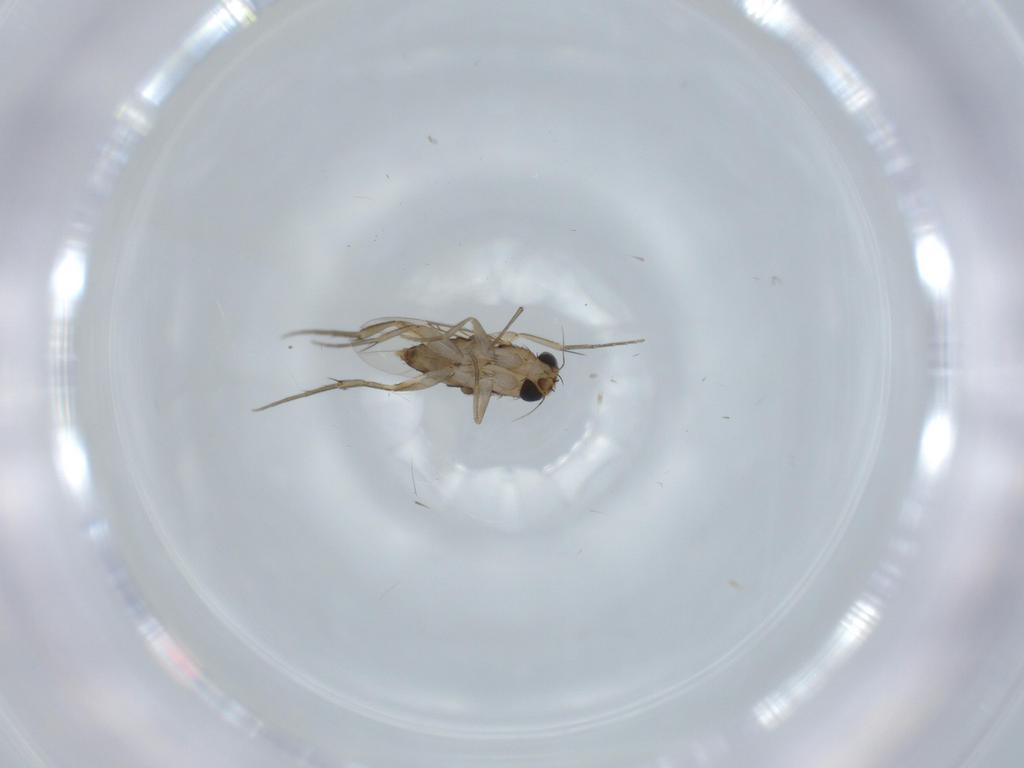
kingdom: Animalia
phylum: Arthropoda
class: Insecta
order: Diptera
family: Phoridae
